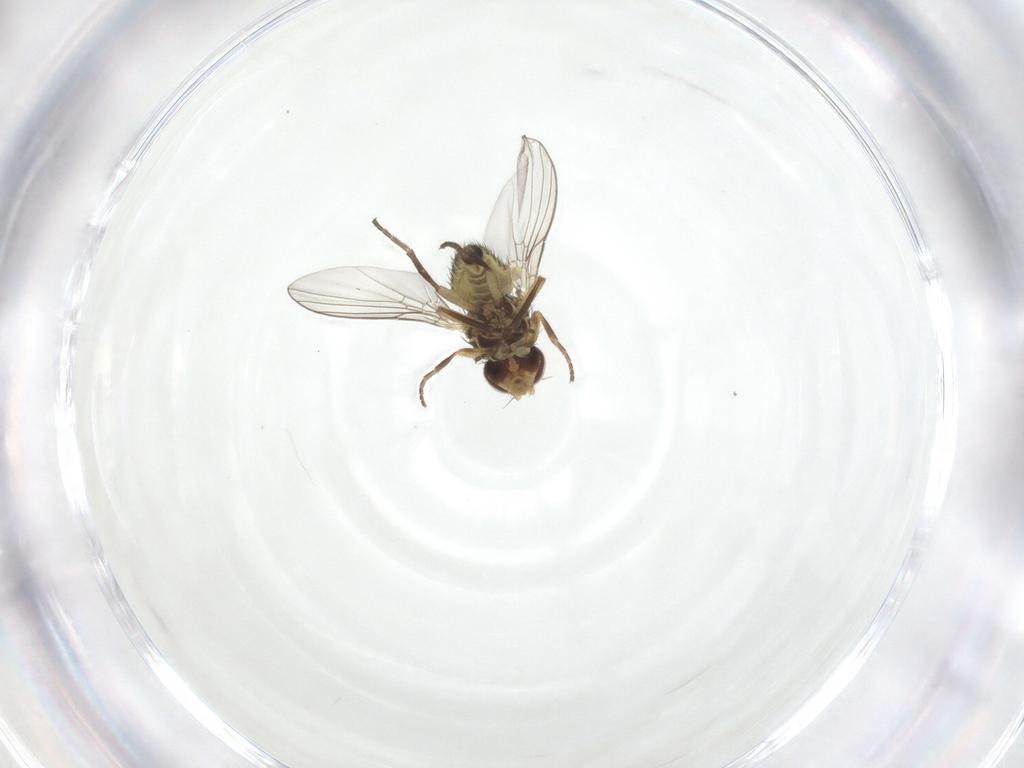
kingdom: Animalia
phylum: Arthropoda
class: Insecta
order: Diptera
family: Agromyzidae
